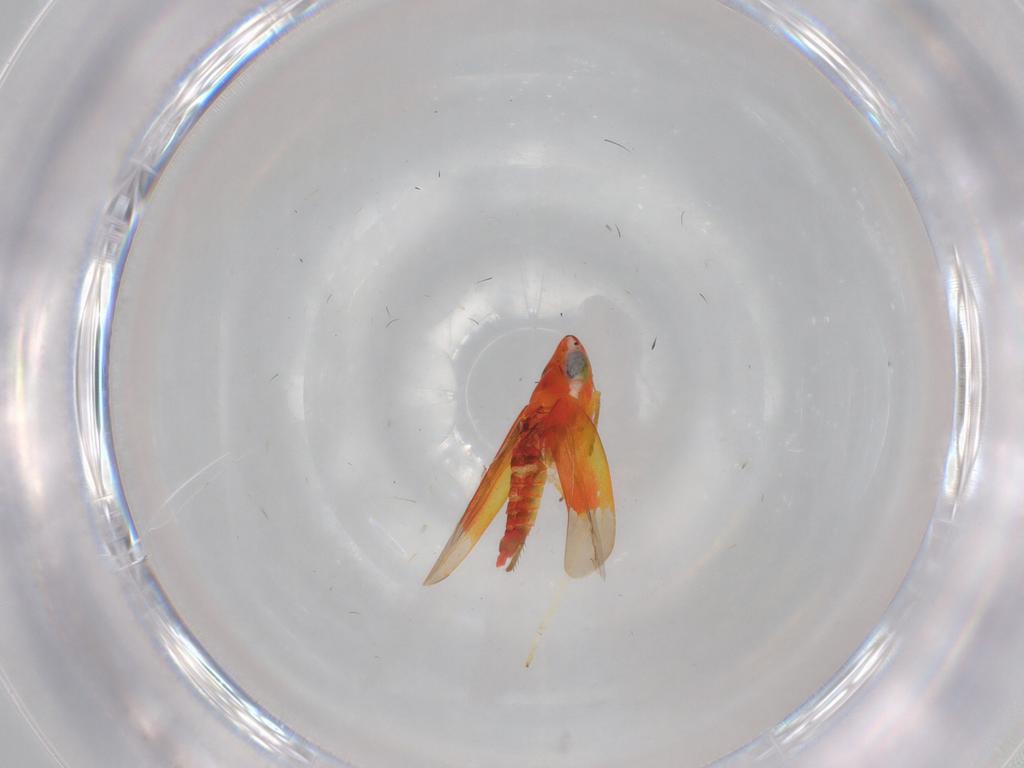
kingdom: Animalia
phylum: Arthropoda
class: Insecta
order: Hemiptera
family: Cicadellidae
